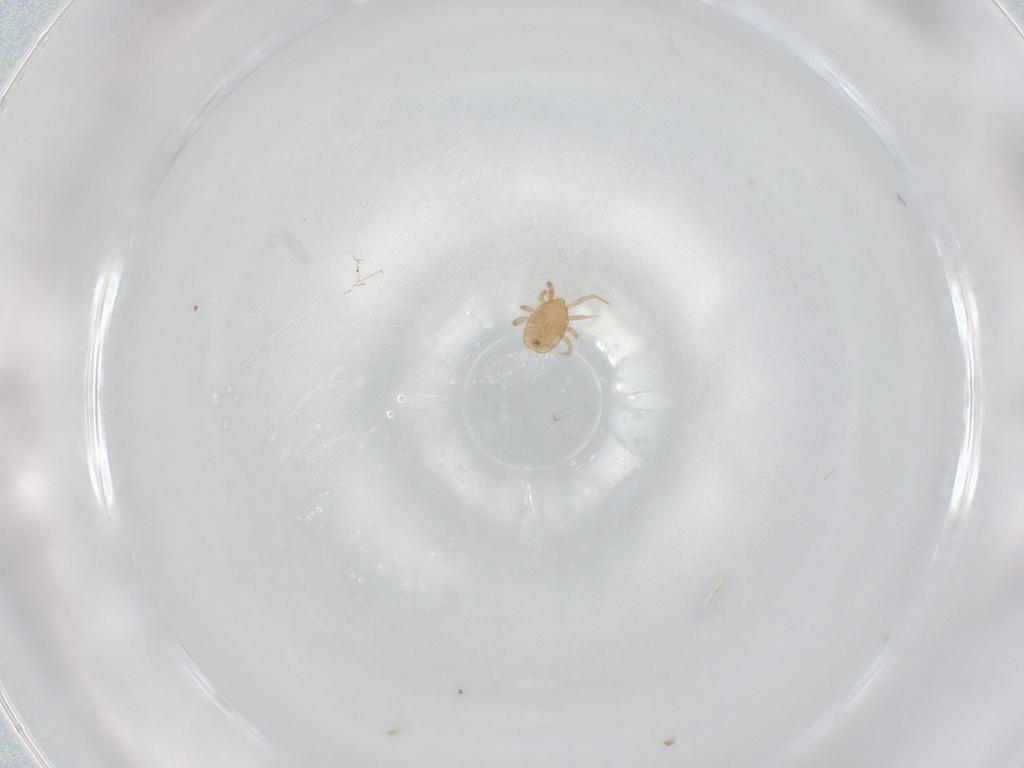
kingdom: Animalia
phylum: Arthropoda
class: Arachnida
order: Sarcoptiformes
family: Eremaeidae
